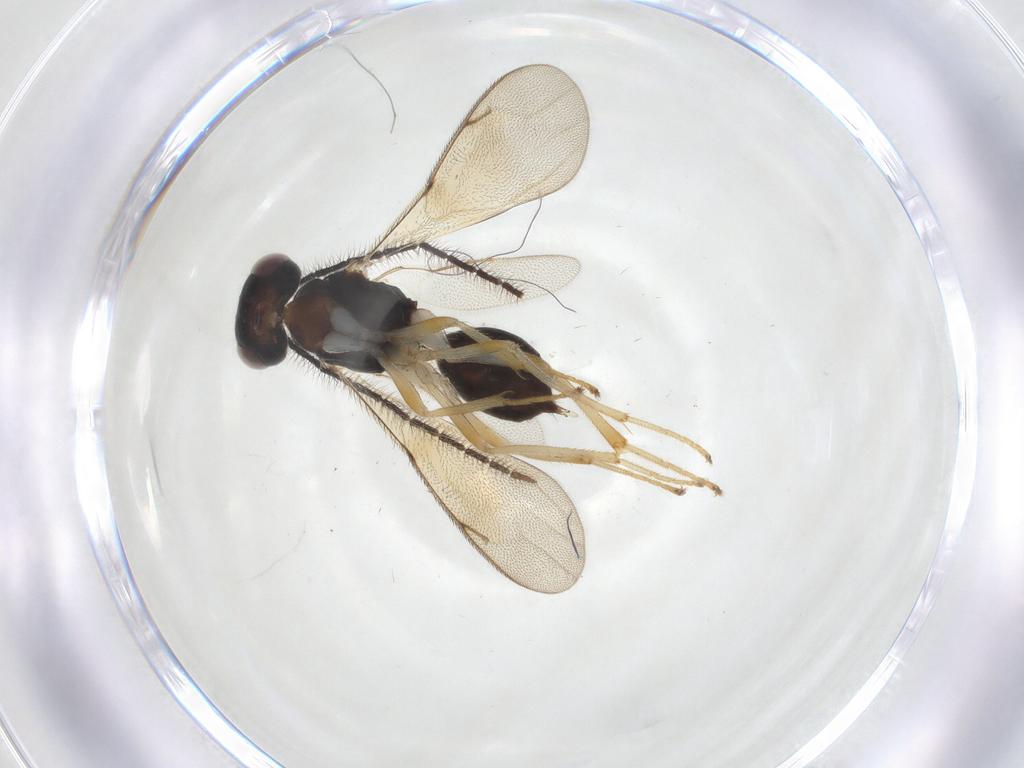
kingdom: Animalia
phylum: Arthropoda
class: Insecta
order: Hymenoptera
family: Diparidae
